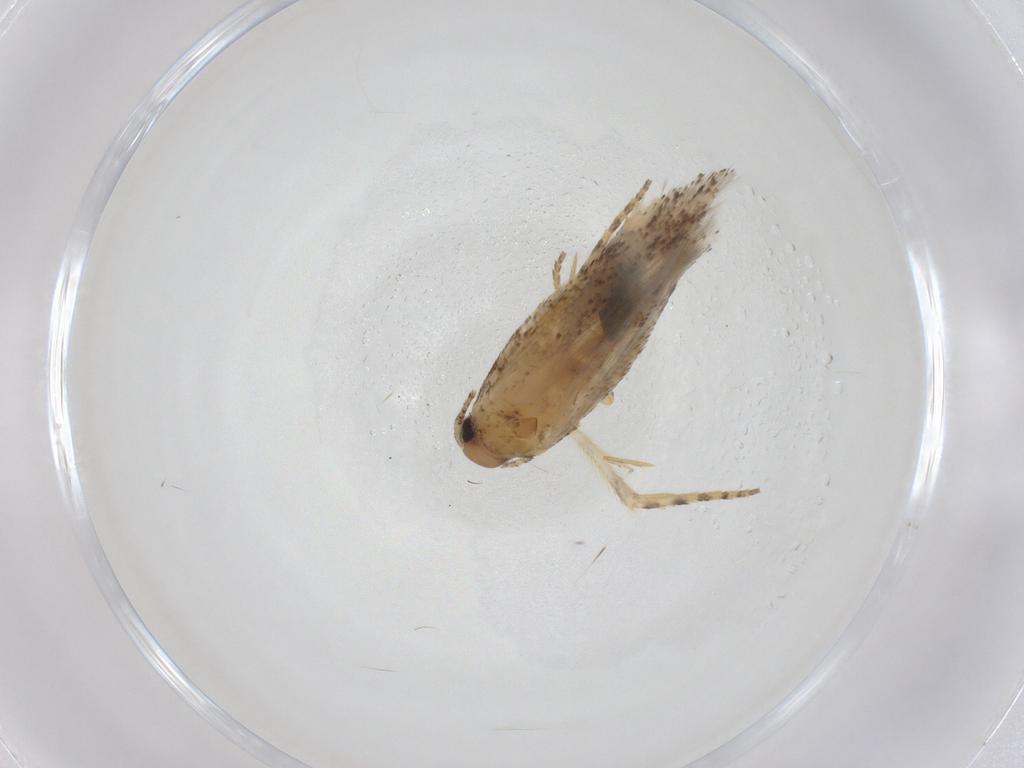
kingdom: Animalia
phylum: Arthropoda
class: Insecta
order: Lepidoptera
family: Gelechiidae
